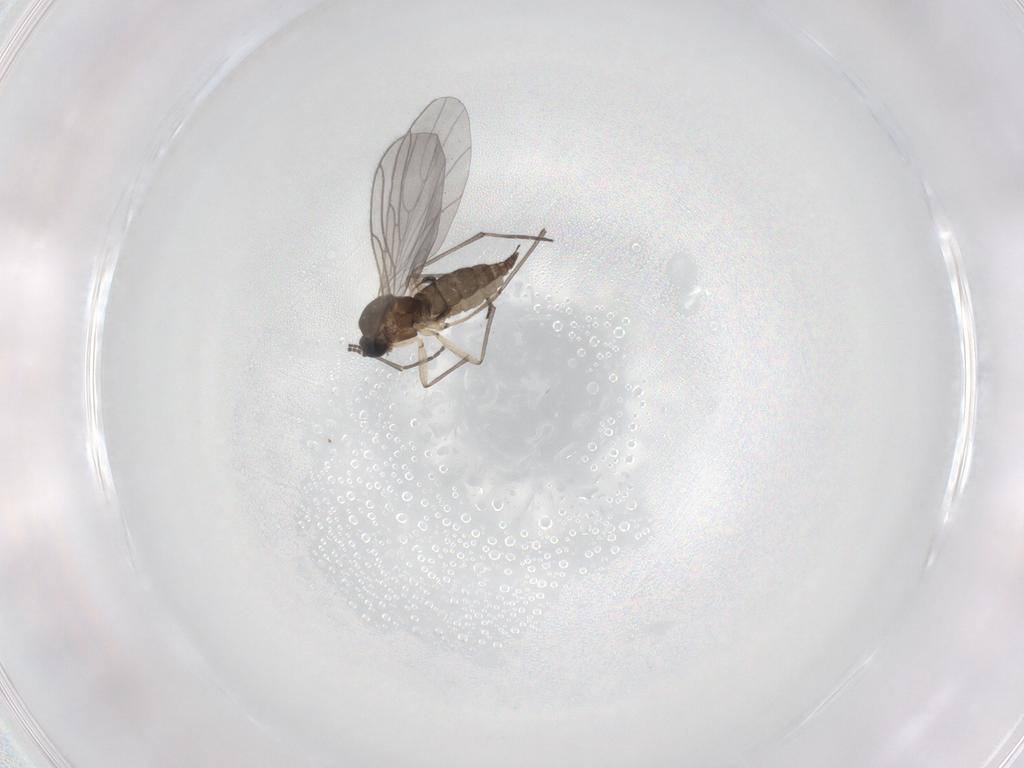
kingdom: Animalia
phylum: Arthropoda
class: Insecta
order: Diptera
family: Sciaridae
